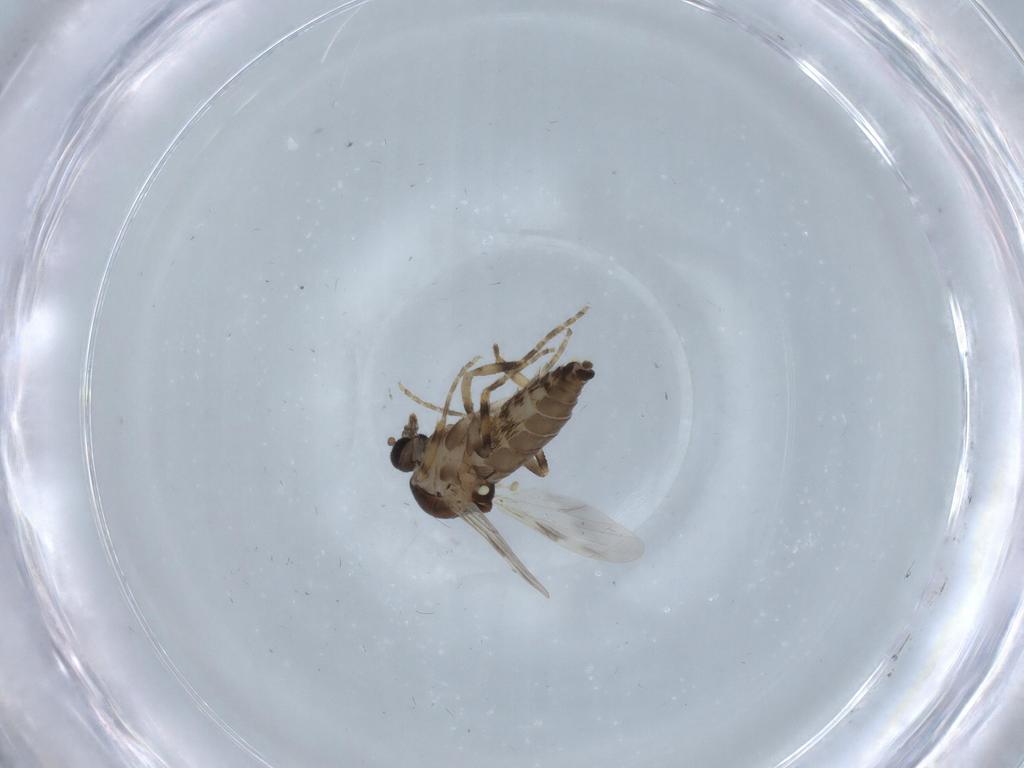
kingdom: Animalia
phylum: Arthropoda
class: Insecta
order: Diptera
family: Ceratopogonidae
